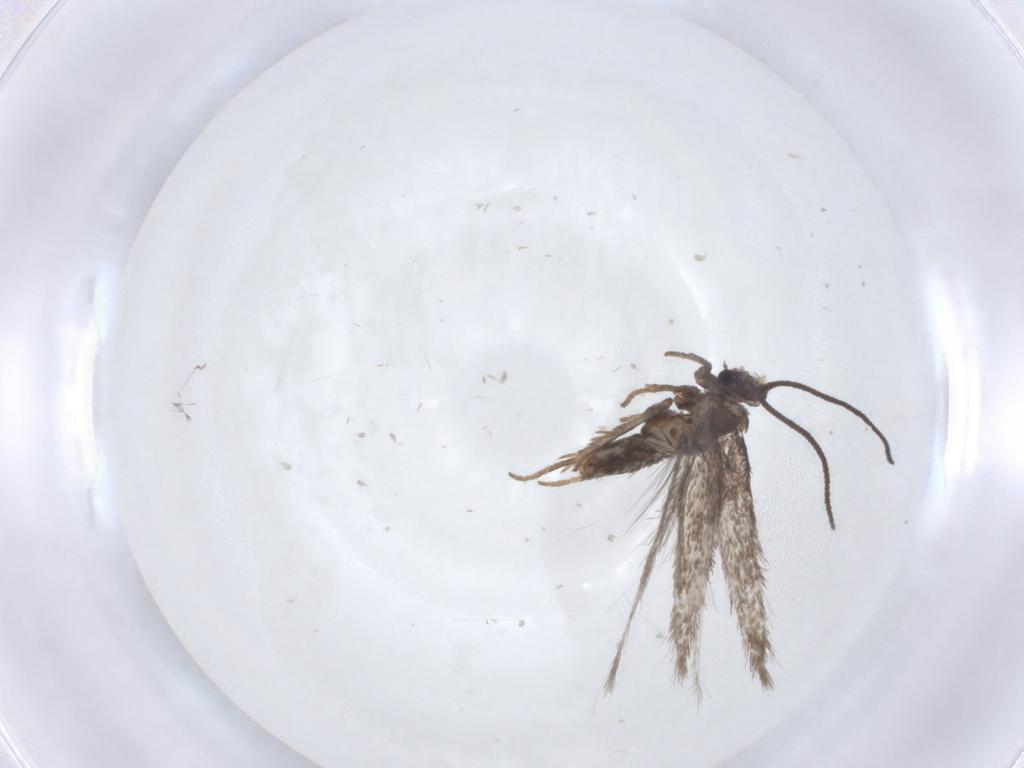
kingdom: Animalia
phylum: Arthropoda
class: Insecta
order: Lepidoptera
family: Nepticulidae
